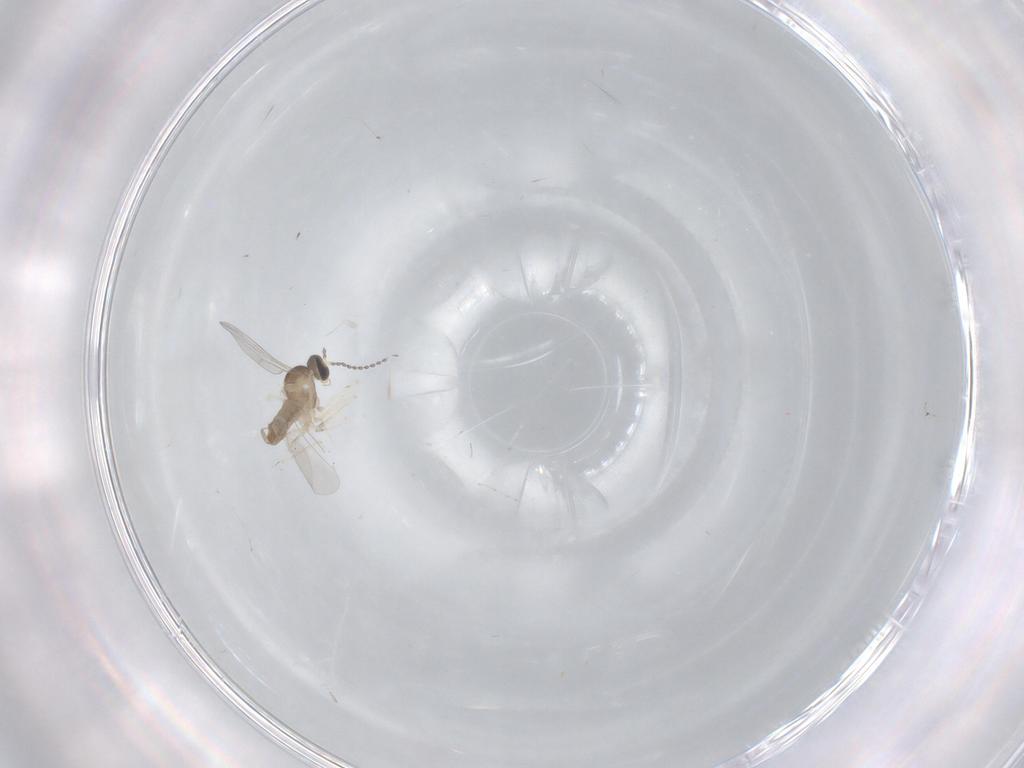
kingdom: Animalia
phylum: Arthropoda
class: Insecta
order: Diptera
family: Cecidomyiidae
